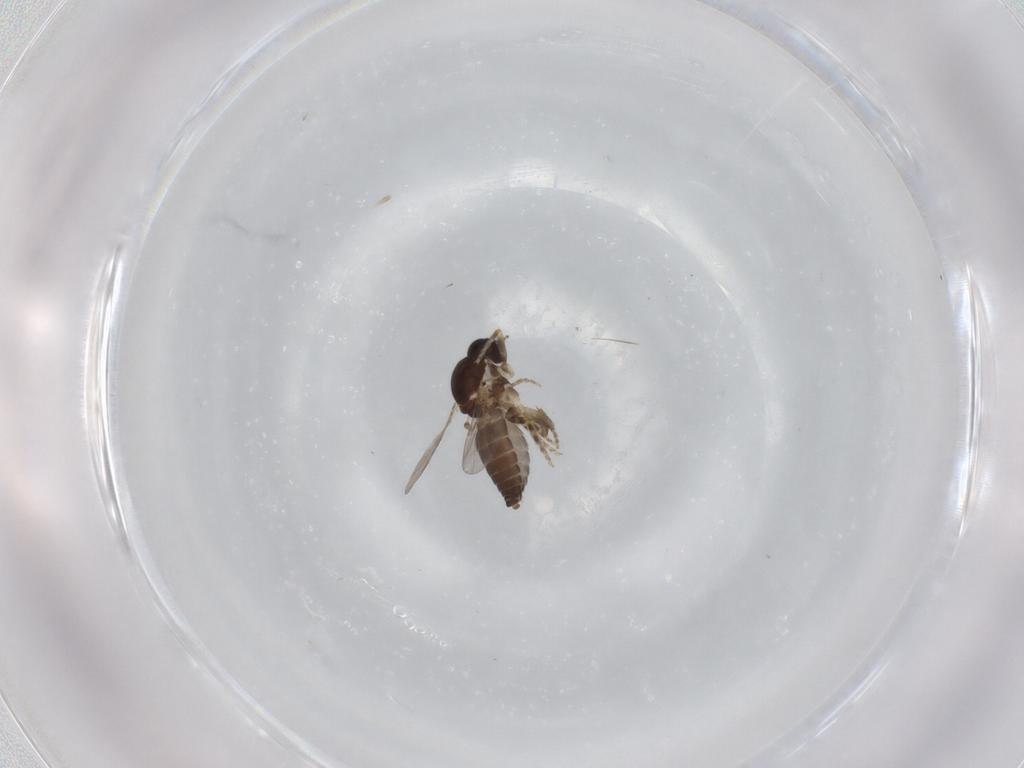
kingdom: Animalia
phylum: Arthropoda
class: Insecta
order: Diptera
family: Ceratopogonidae
